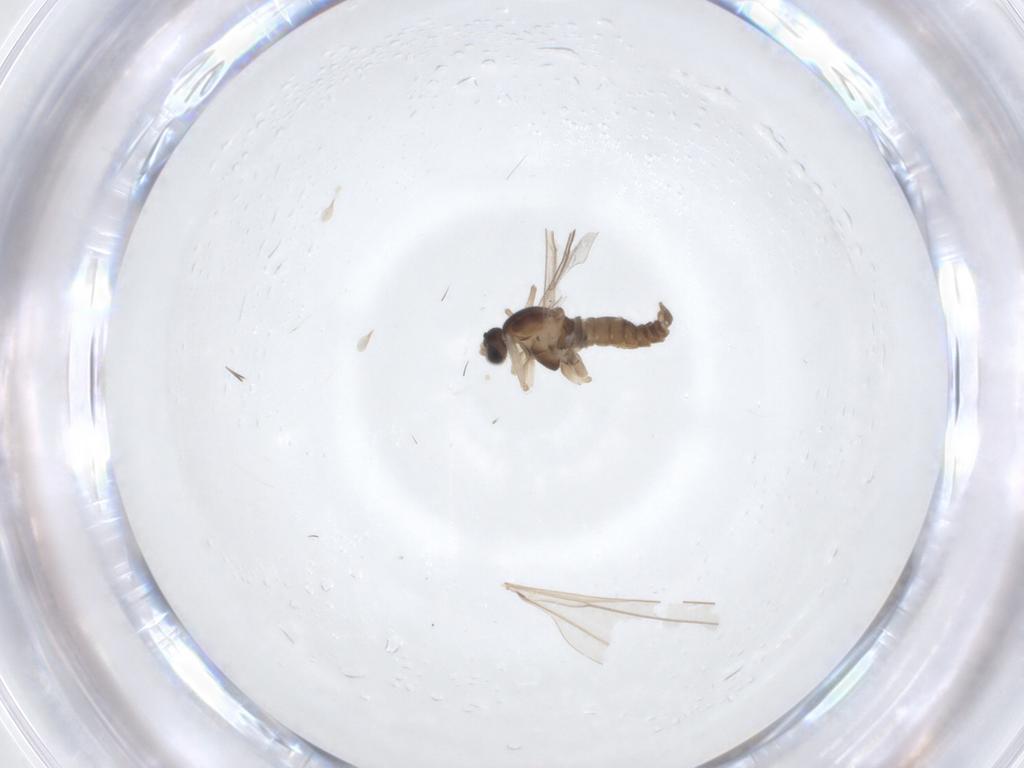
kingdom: Animalia
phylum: Arthropoda
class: Insecta
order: Diptera
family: Cecidomyiidae
